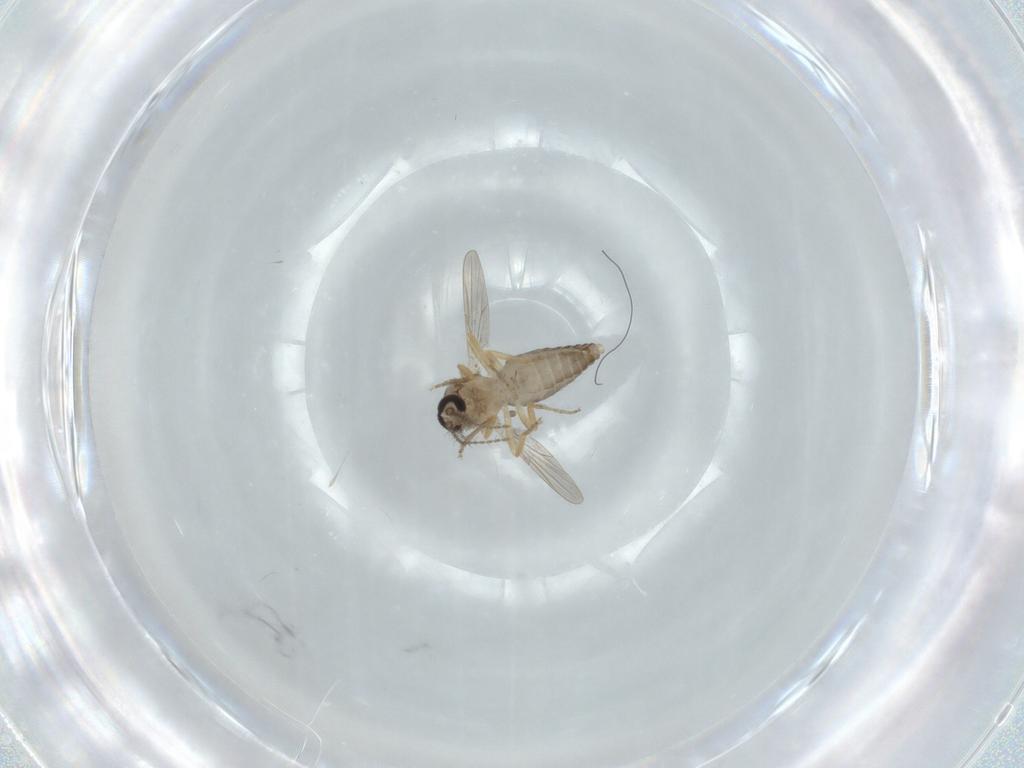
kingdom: Animalia
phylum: Arthropoda
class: Insecta
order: Diptera
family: Ceratopogonidae
